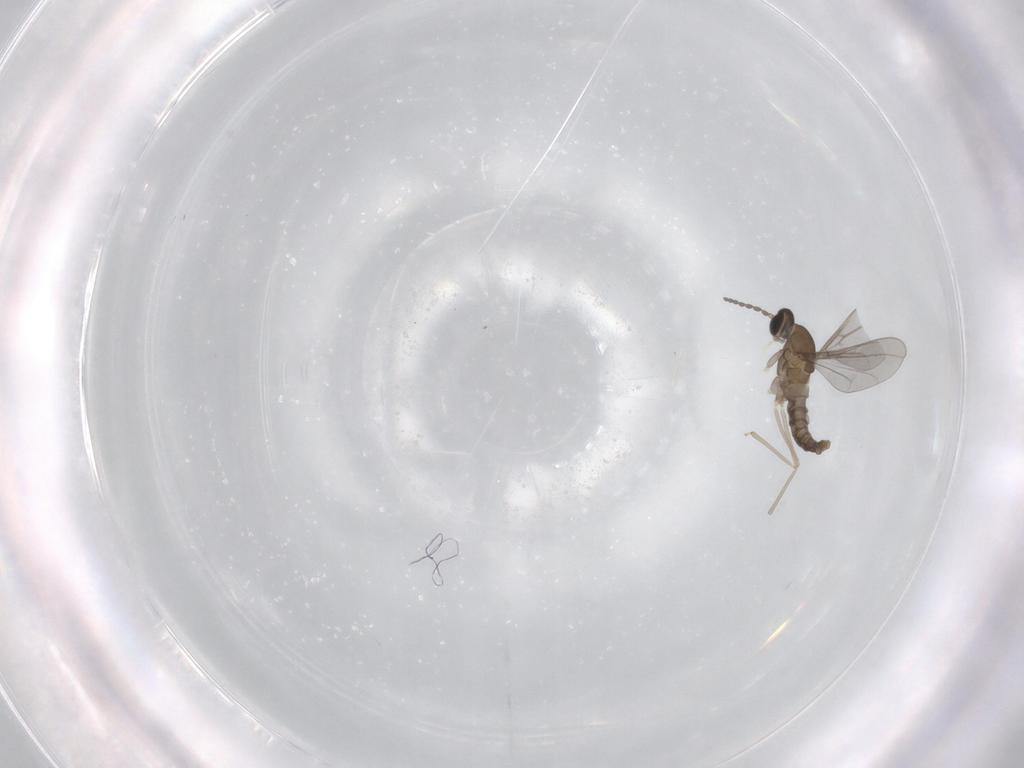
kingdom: Animalia
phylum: Arthropoda
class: Insecta
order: Diptera
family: Cecidomyiidae
